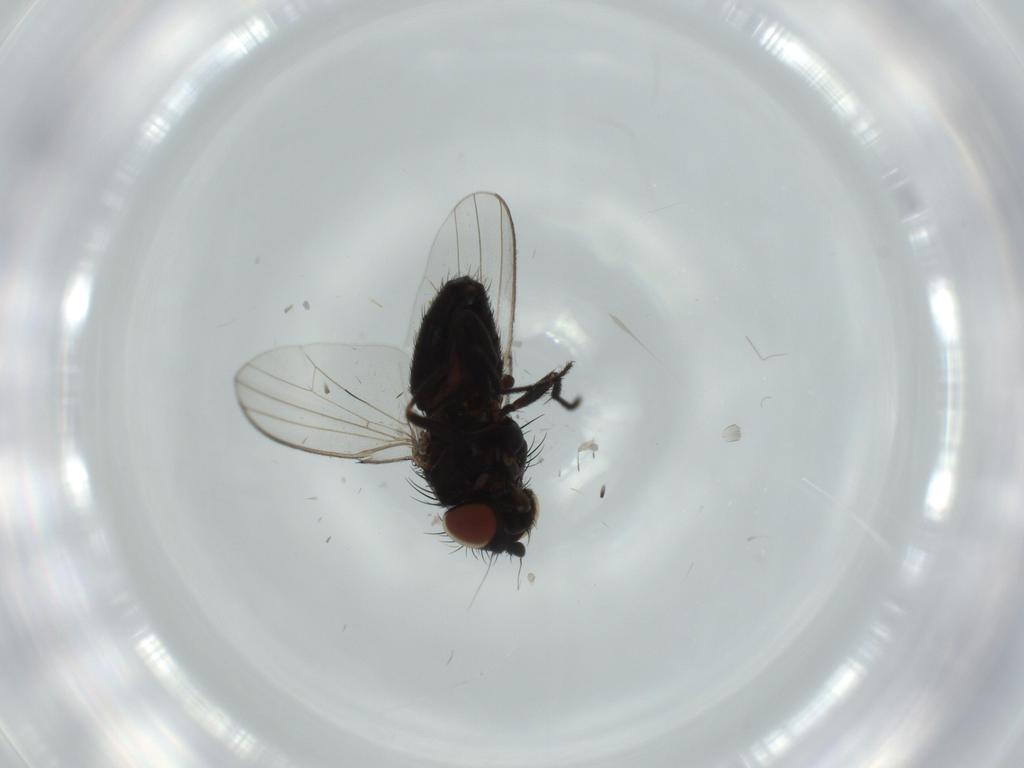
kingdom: Animalia
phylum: Arthropoda
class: Insecta
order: Diptera
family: Milichiidae
